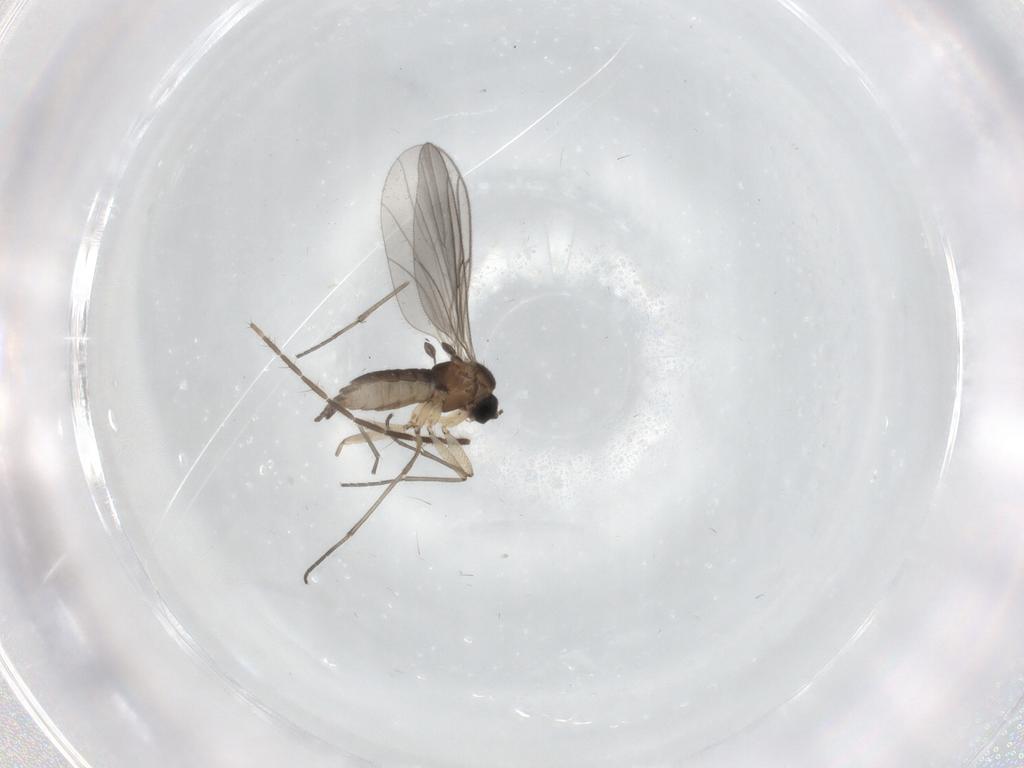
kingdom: Animalia
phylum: Arthropoda
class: Insecta
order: Diptera
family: Sciaridae
